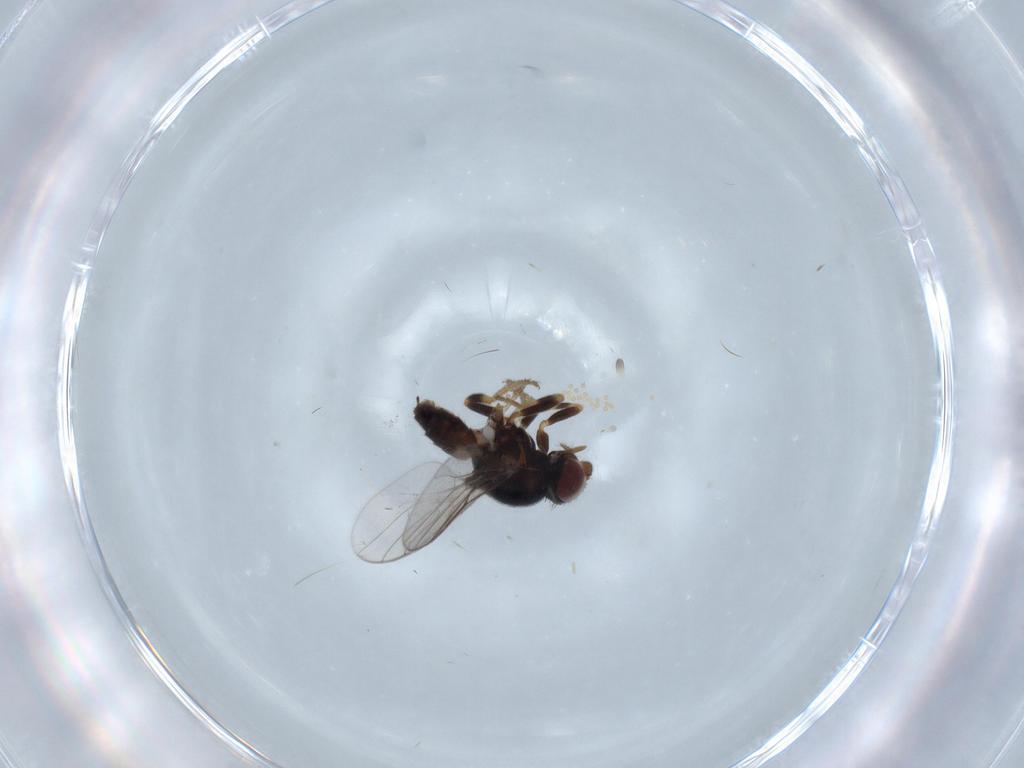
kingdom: Animalia
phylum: Arthropoda
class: Insecta
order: Diptera
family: Chloropidae
